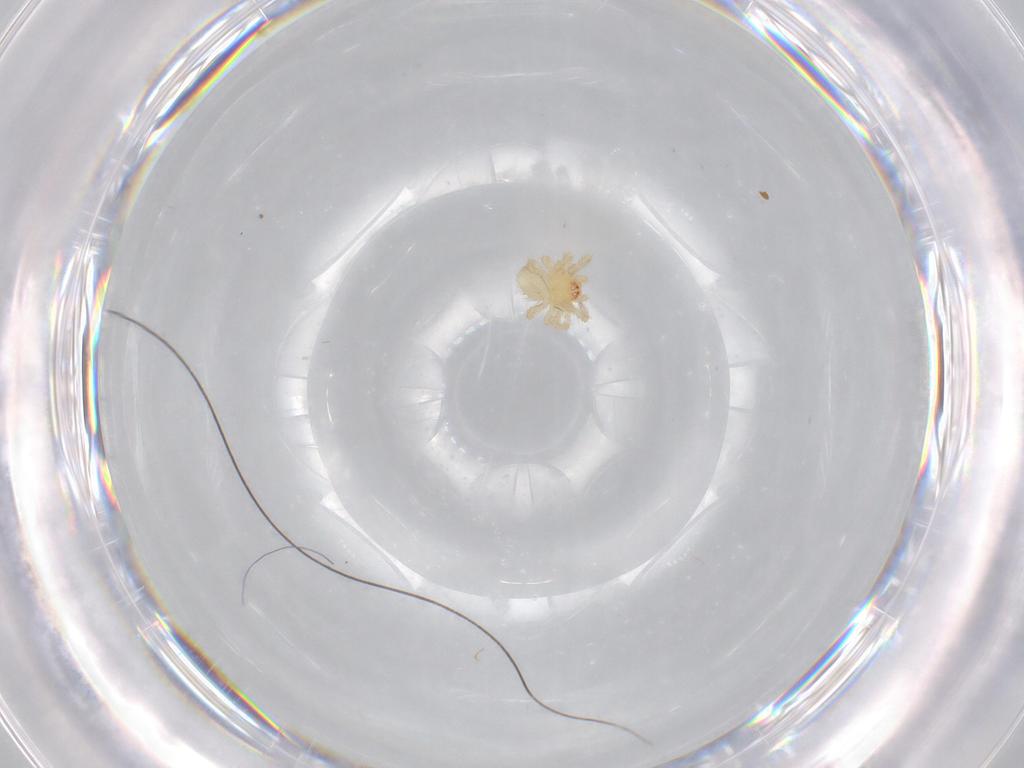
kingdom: Animalia
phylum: Arthropoda
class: Arachnida
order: Araneae
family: Theridiidae
